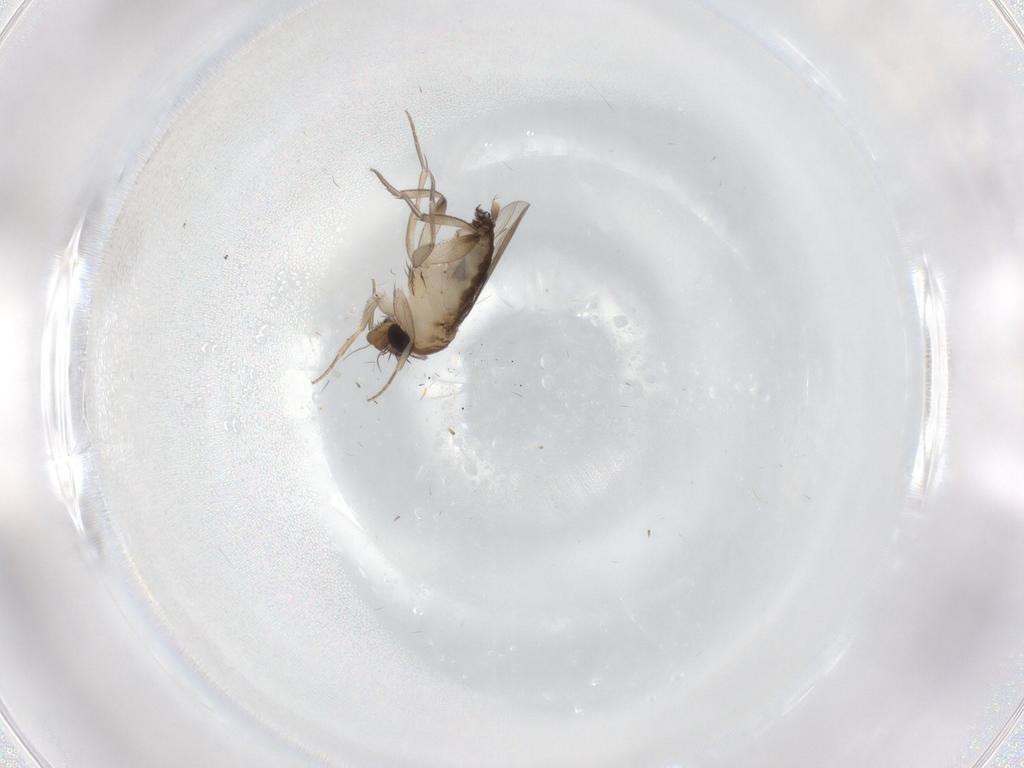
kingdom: Animalia
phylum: Arthropoda
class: Insecta
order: Diptera
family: Phoridae
